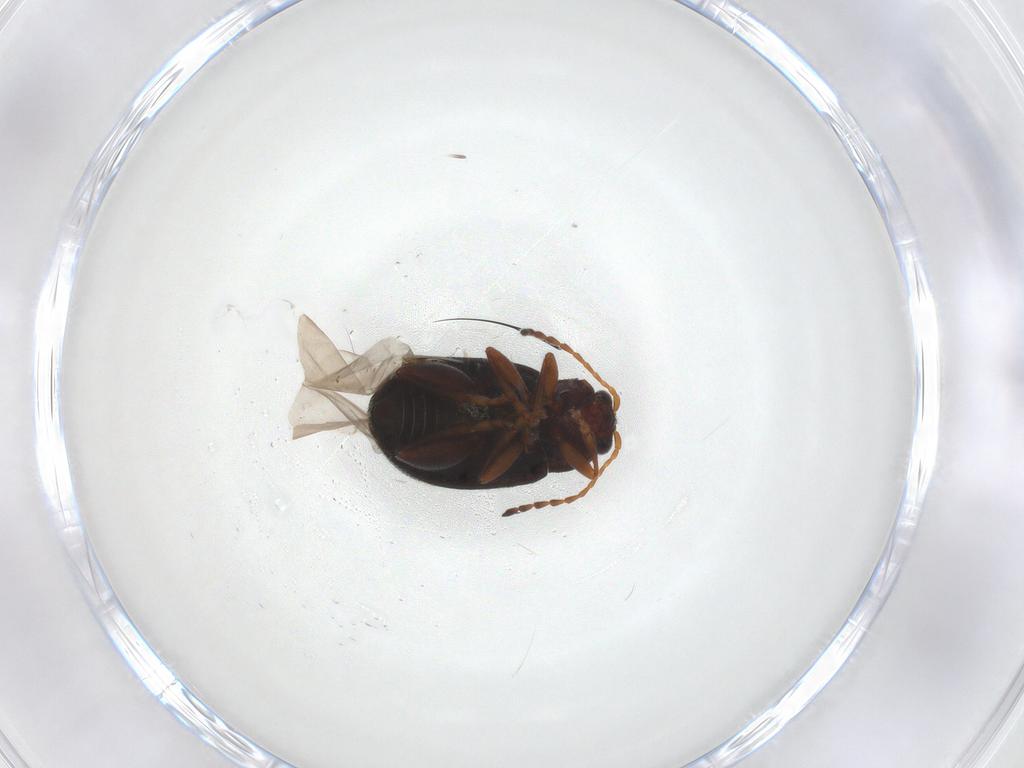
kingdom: Animalia
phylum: Arthropoda
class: Insecta
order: Coleoptera
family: Chrysomelidae
